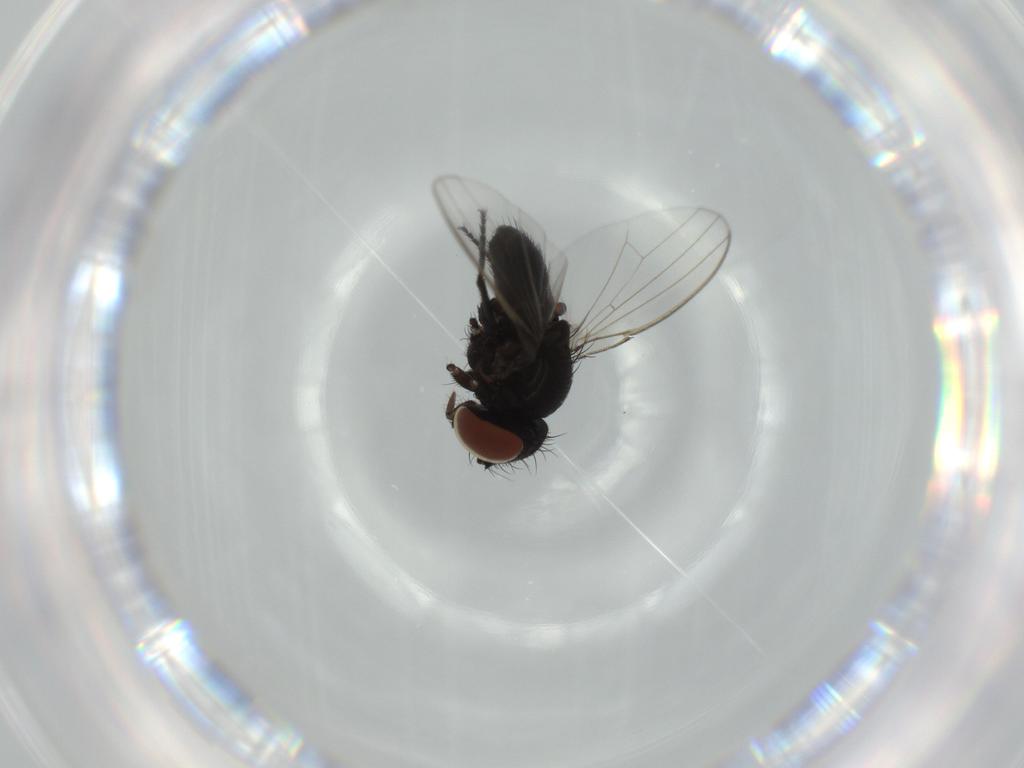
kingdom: Animalia
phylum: Arthropoda
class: Insecta
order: Diptera
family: Milichiidae
